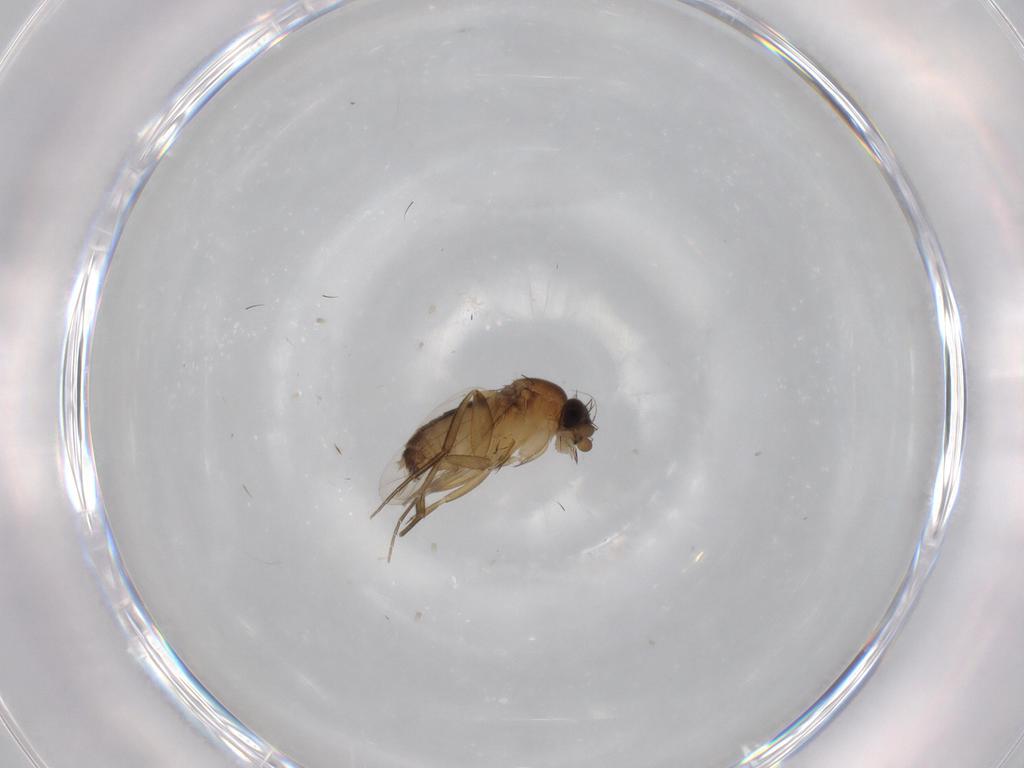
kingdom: Animalia
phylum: Arthropoda
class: Insecta
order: Diptera
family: Phoridae
